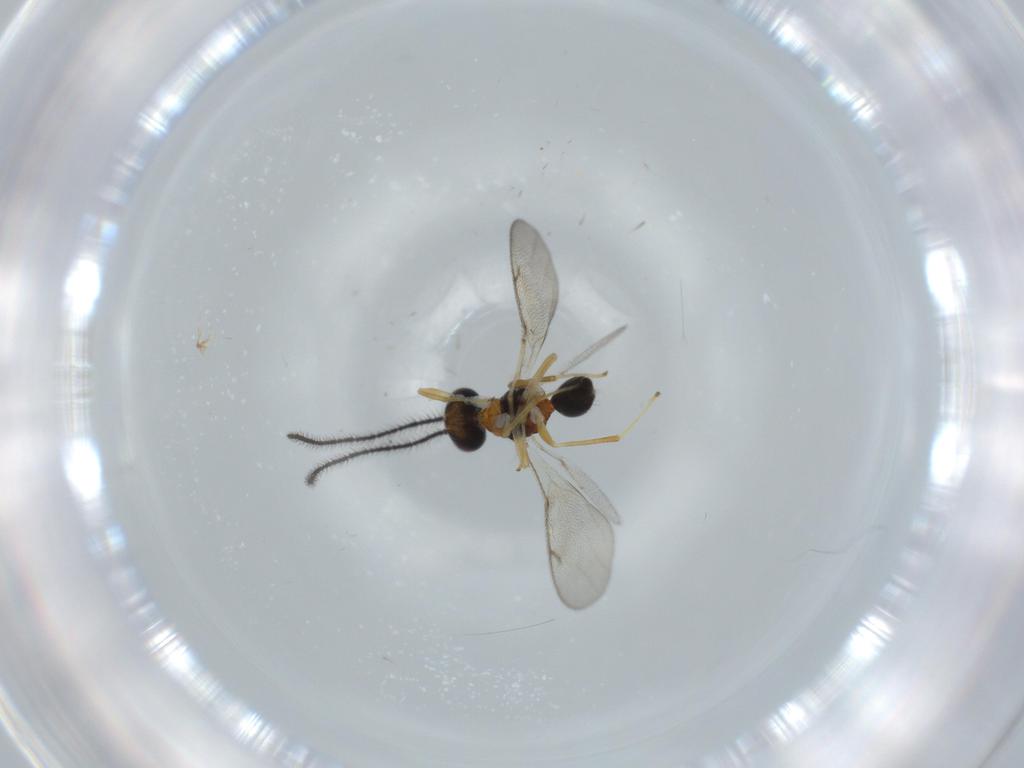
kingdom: Animalia
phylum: Arthropoda
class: Insecta
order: Hymenoptera
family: Diparidae
